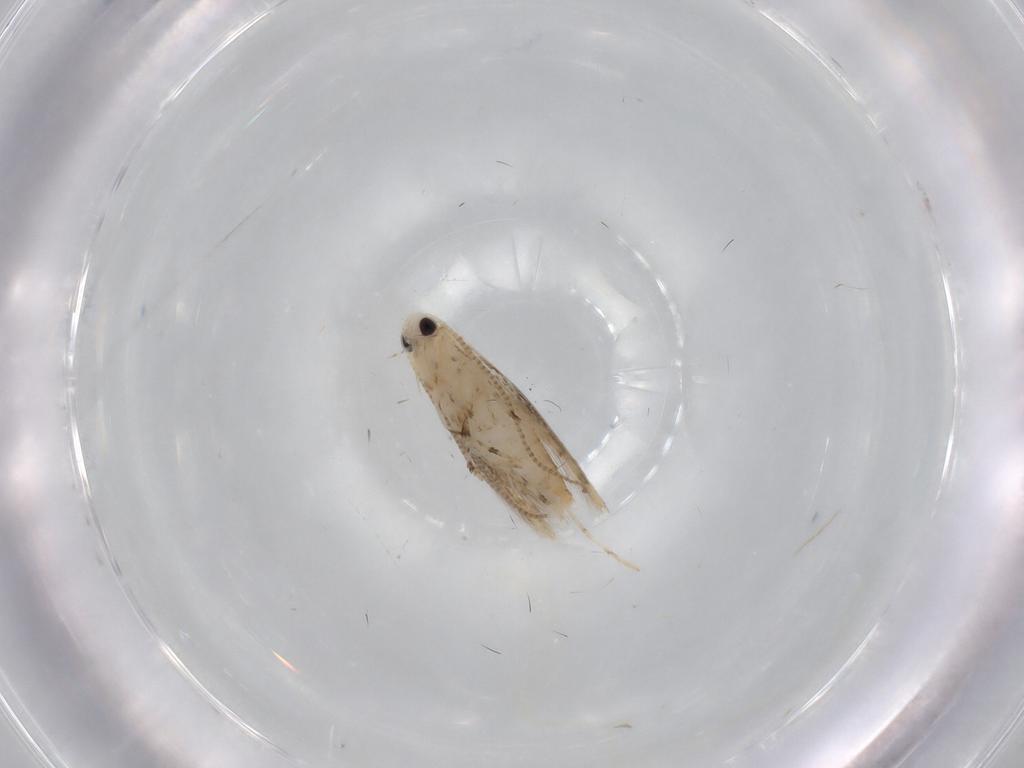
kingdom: Animalia
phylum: Arthropoda
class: Insecta
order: Lepidoptera
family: Gracillariidae
